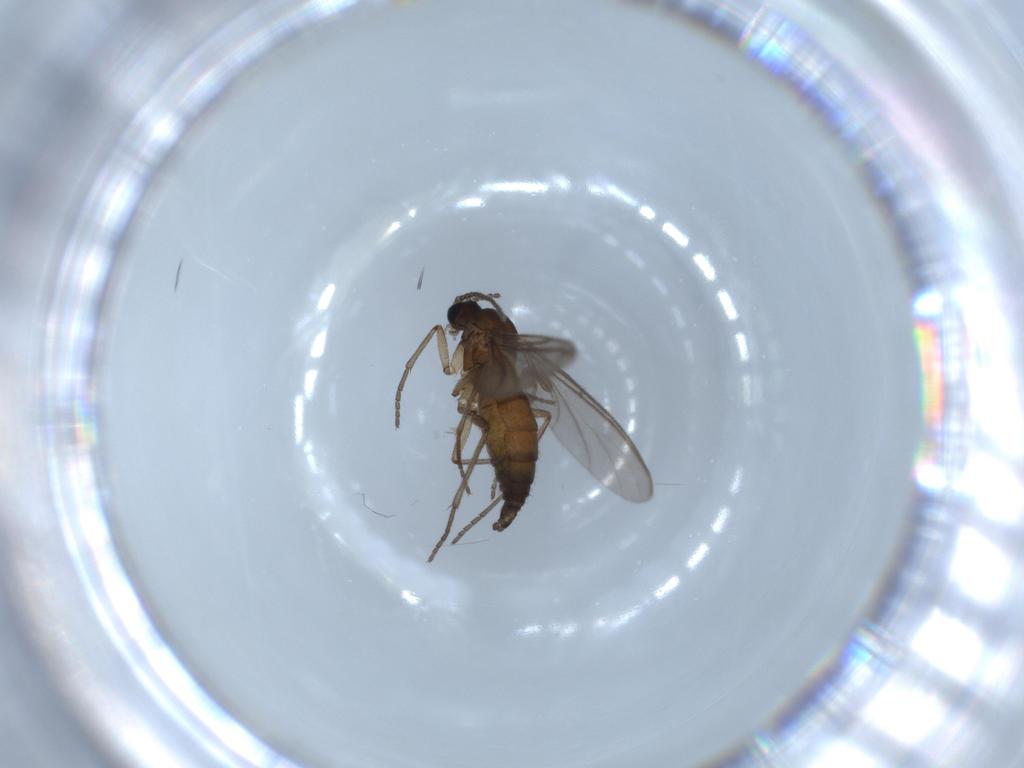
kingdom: Animalia
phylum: Arthropoda
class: Insecta
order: Diptera
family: Sciaridae
